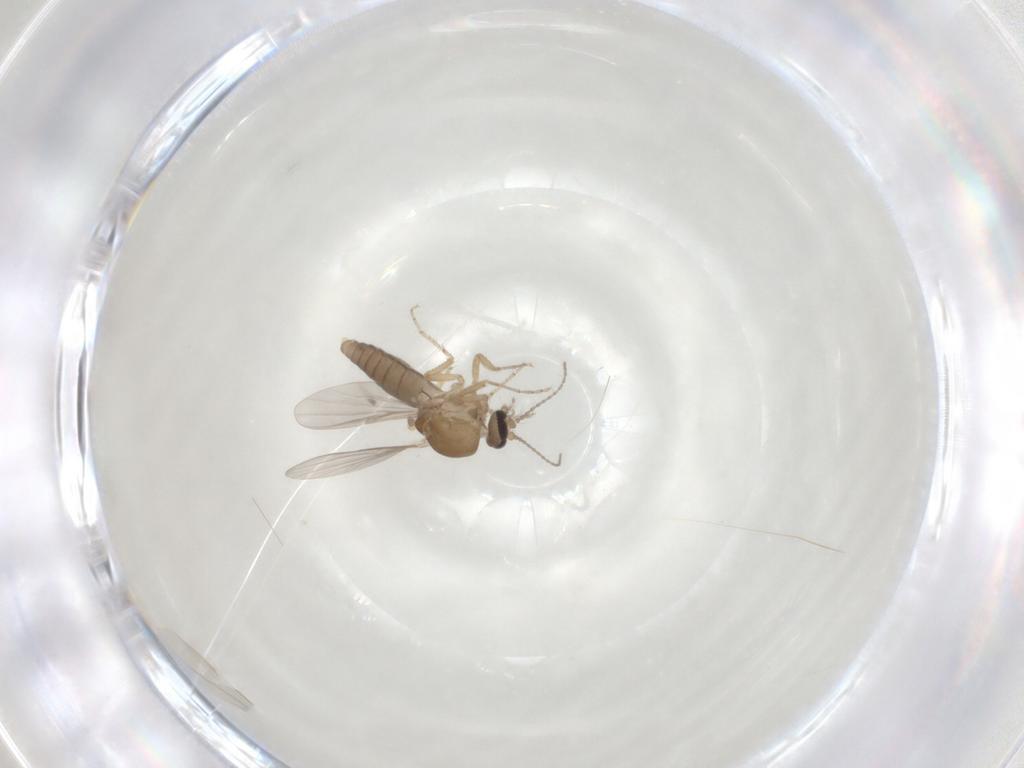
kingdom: Animalia
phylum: Arthropoda
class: Insecta
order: Diptera
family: Ceratopogonidae
